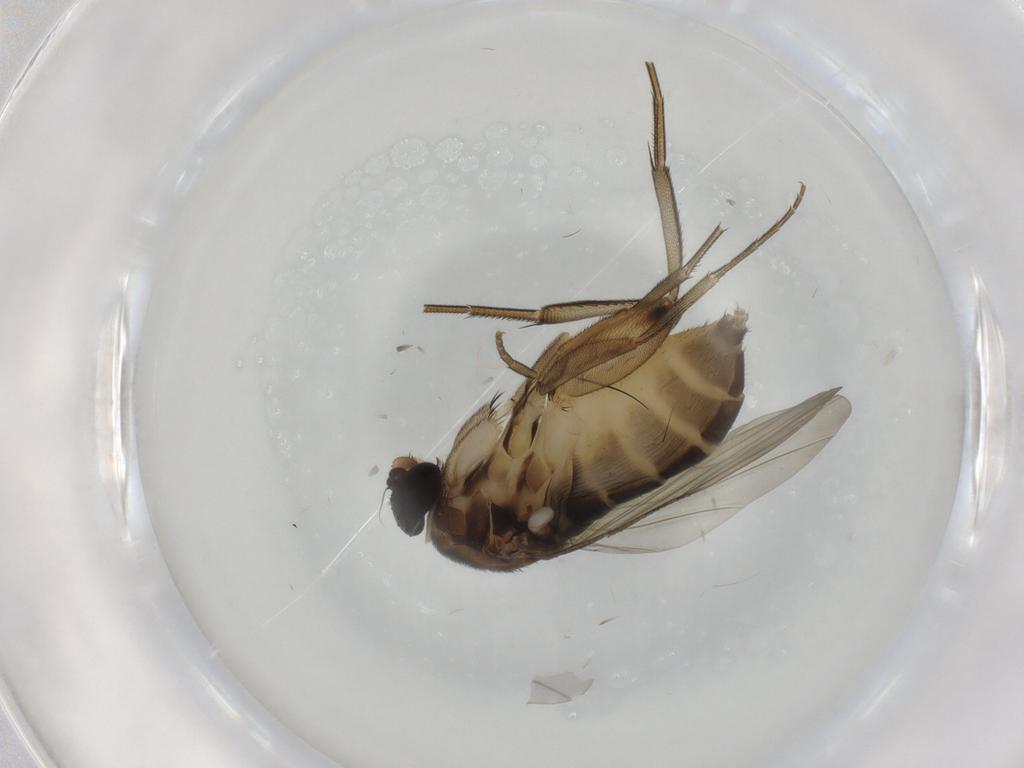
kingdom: Animalia
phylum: Arthropoda
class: Insecta
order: Diptera
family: Phoridae
